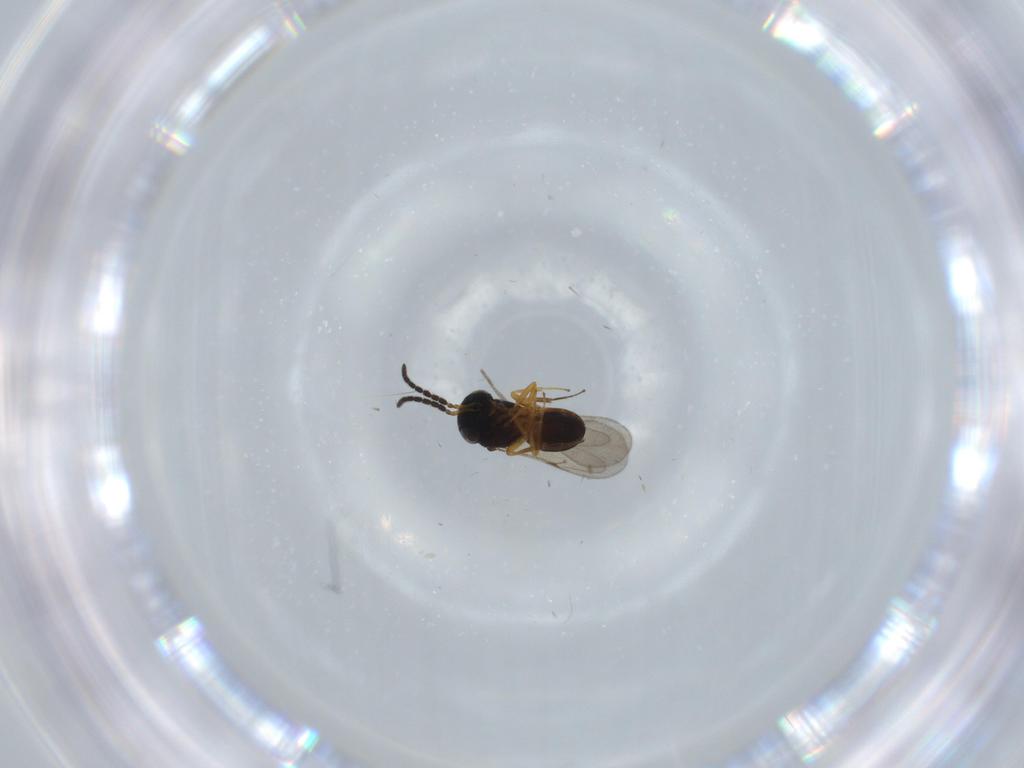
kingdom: Animalia
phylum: Arthropoda
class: Insecta
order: Hymenoptera
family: Scelionidae
